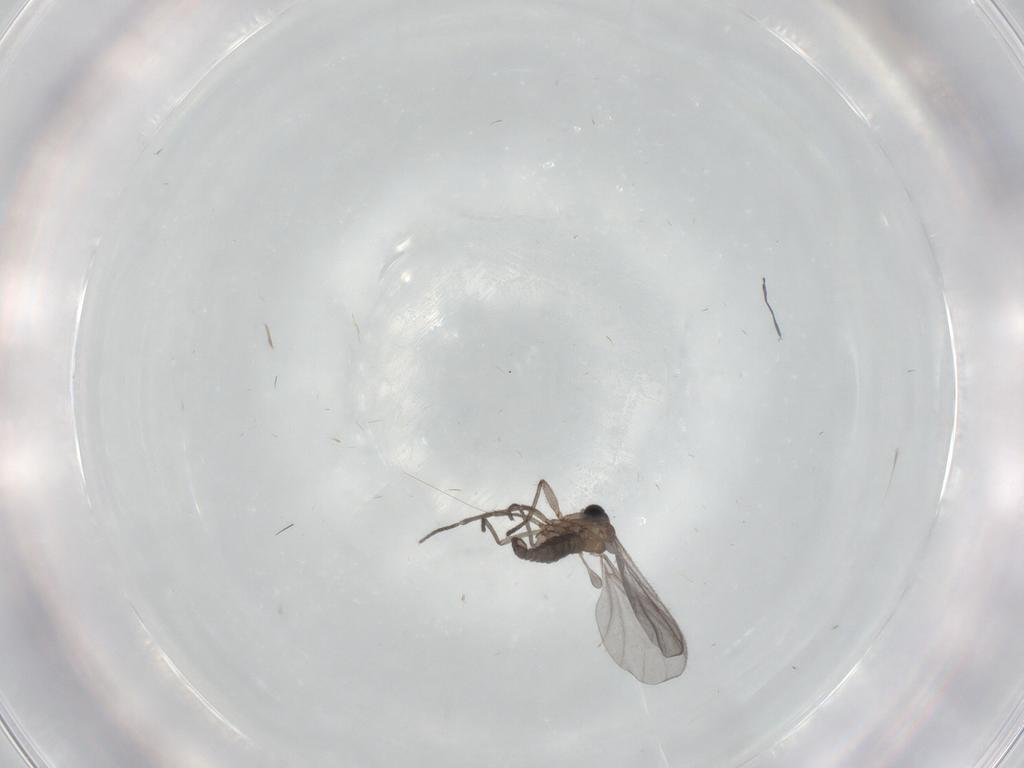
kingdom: Animalia
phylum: Arthropoda
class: Insecta
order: Diptera
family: Sciaridae
